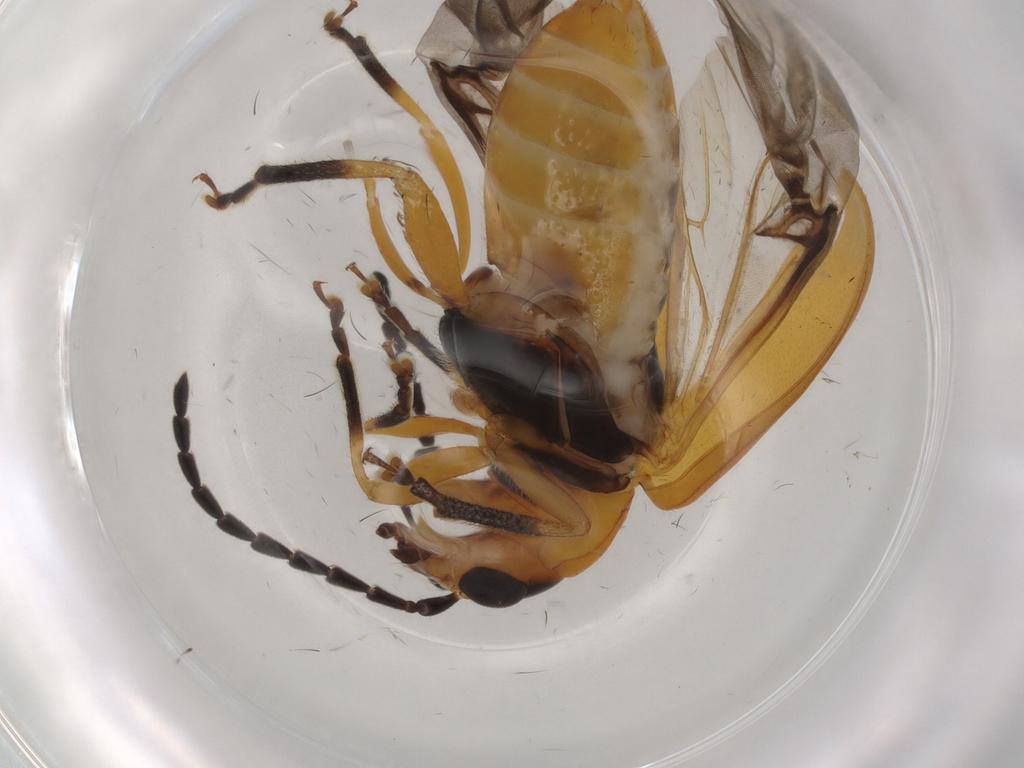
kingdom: Animalia
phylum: Arthropoda
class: Insecta
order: Coleoptera
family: Chrysomelidae
